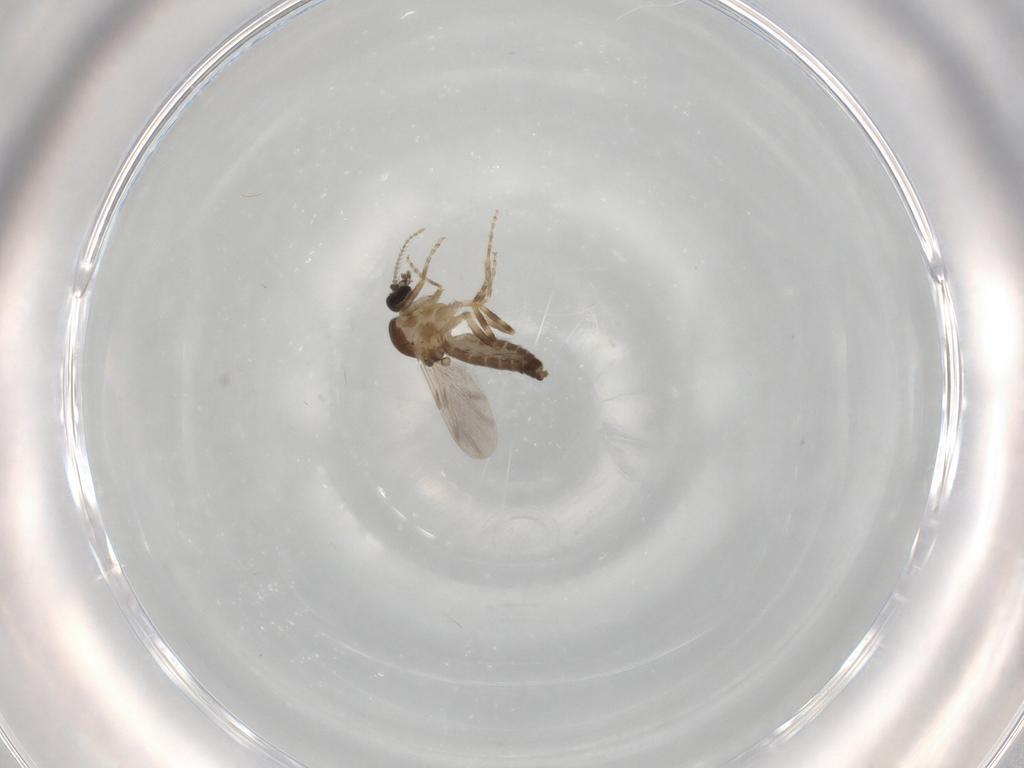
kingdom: Animalia
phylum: Arthropoda
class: Insecta
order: Diptera
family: Ceratopogonidae
